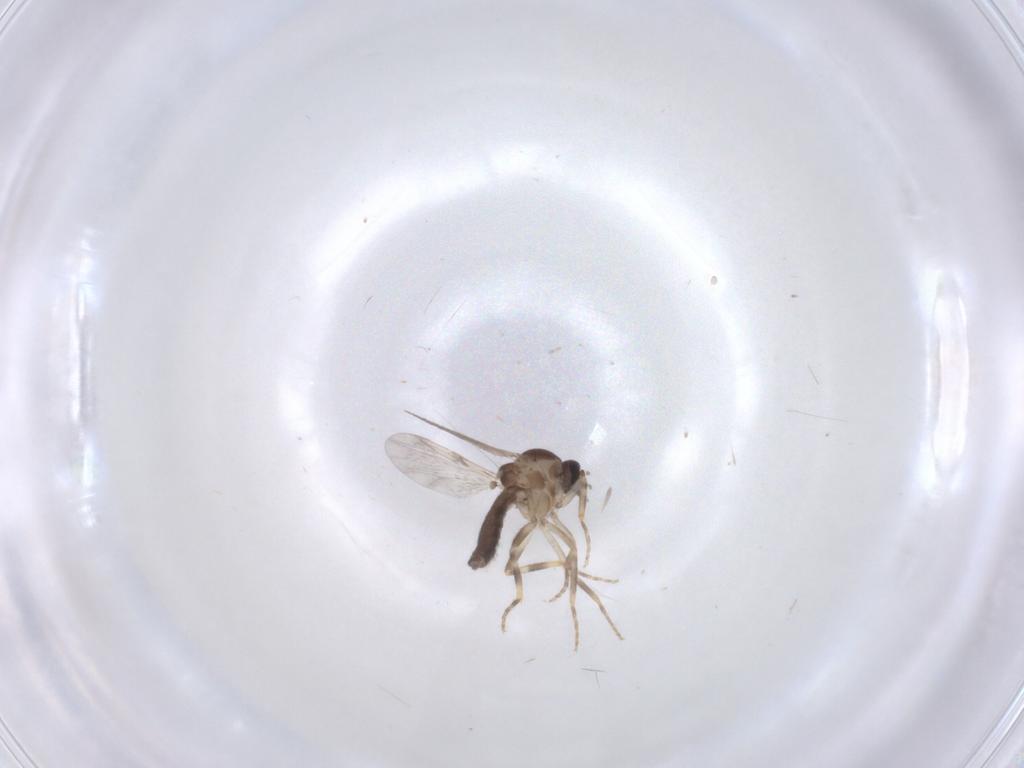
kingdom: Animalia
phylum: Arthropoda
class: Insecta
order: Diptera
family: Ceratopogonidae
